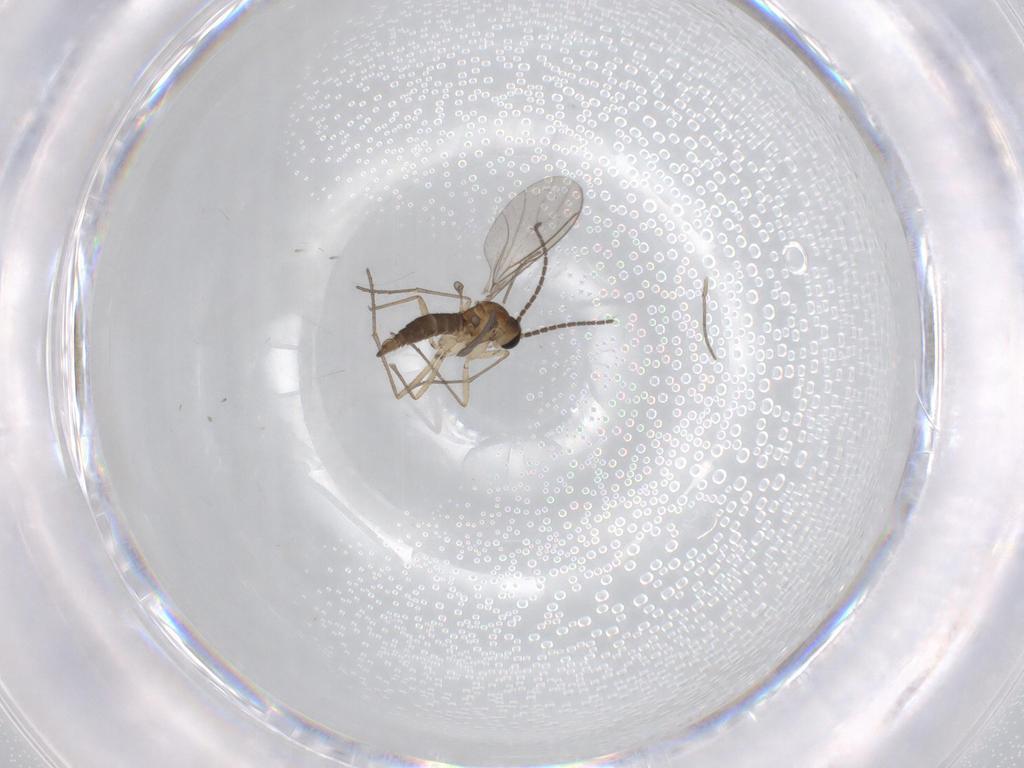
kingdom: Animalia
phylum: Arthropoda
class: Insecta
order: Diptera
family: Sciaridae
